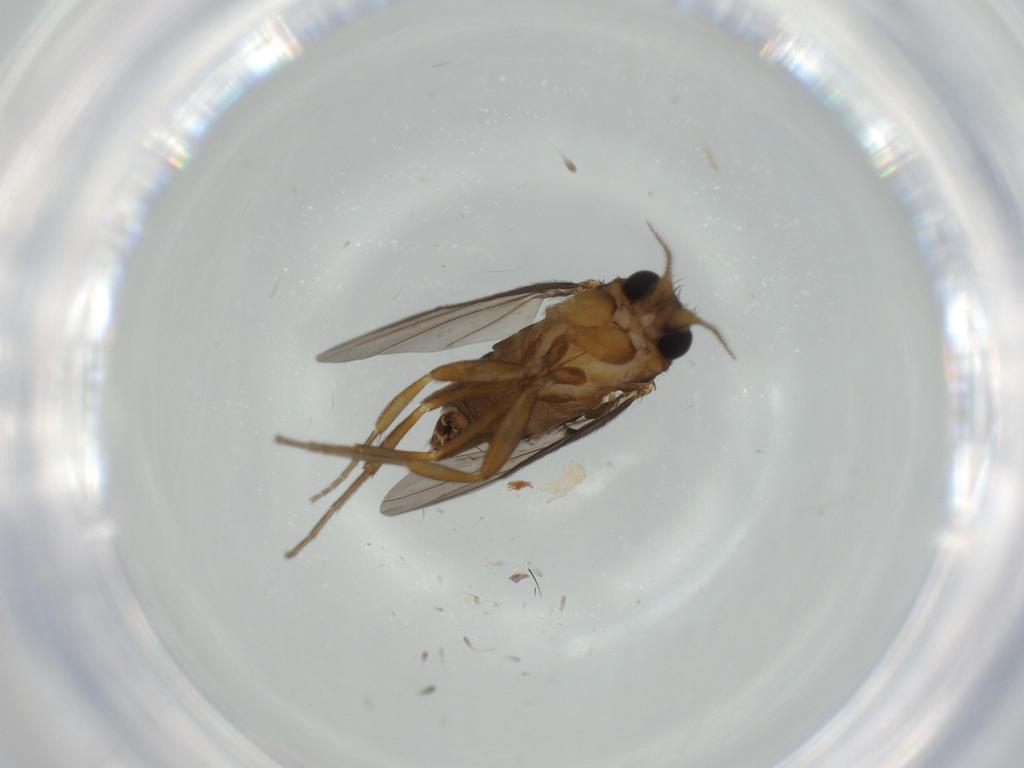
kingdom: Animalia
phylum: Arthropoda
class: Insecta
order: Diptera
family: Phoridae
